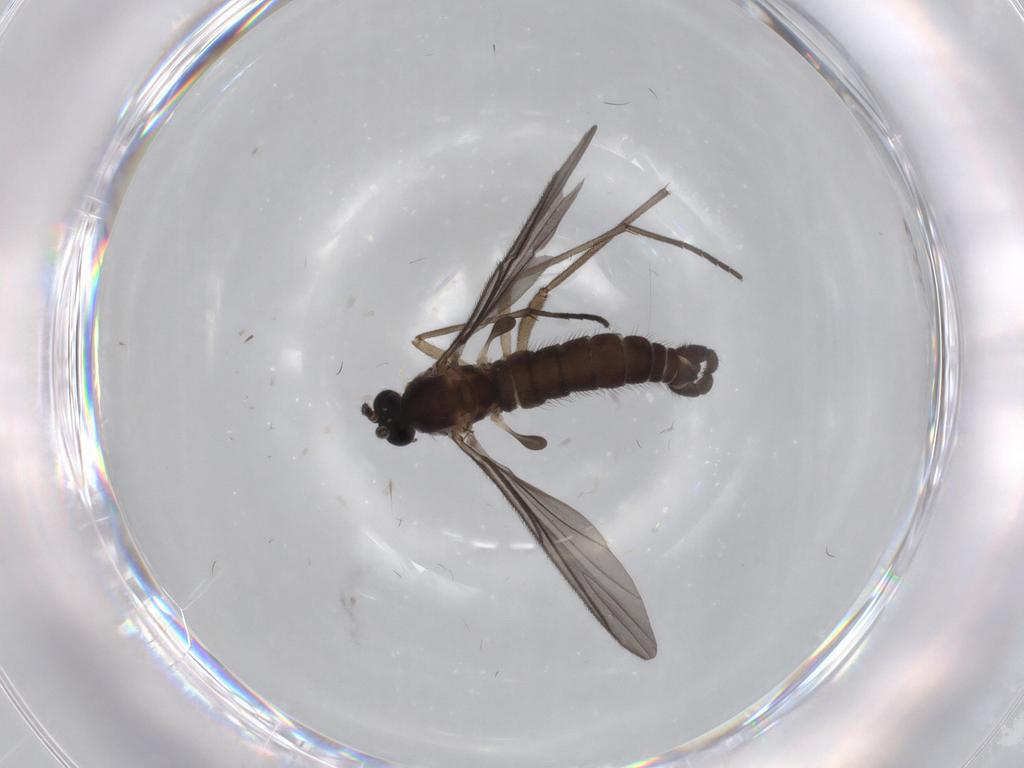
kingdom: Animalia
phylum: Arthropoda
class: Insecta
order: Diptera
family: Sciaridae
